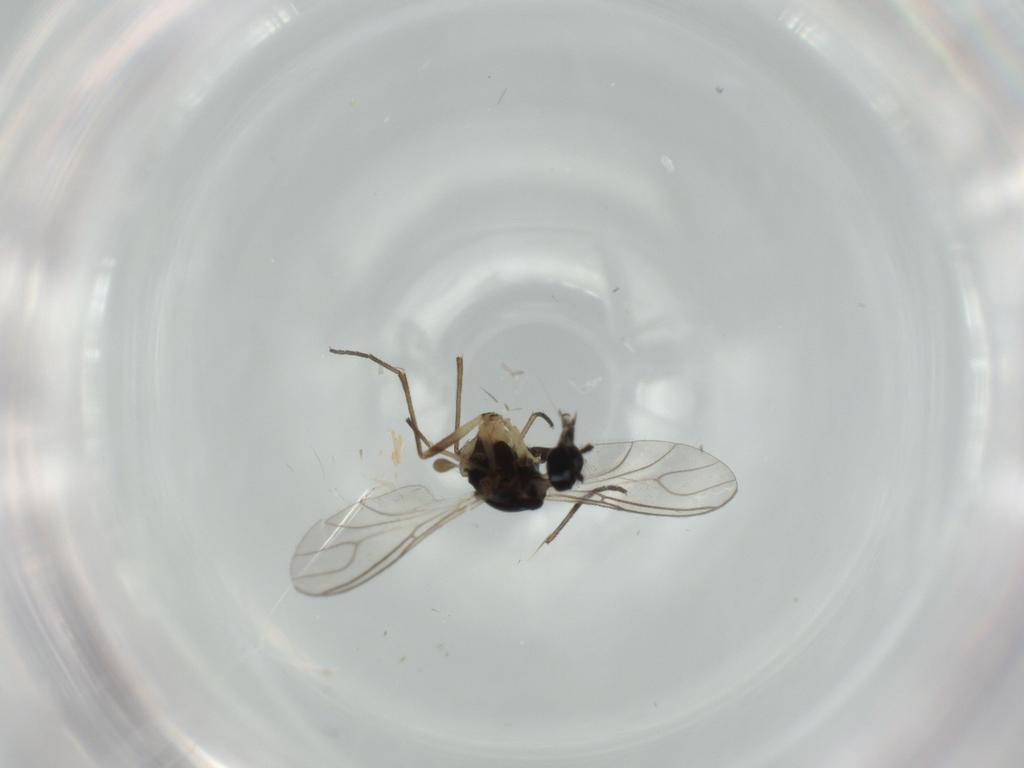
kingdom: Animalia
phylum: Arthropoda
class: Insecta
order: Diptera
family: Sciaridae
